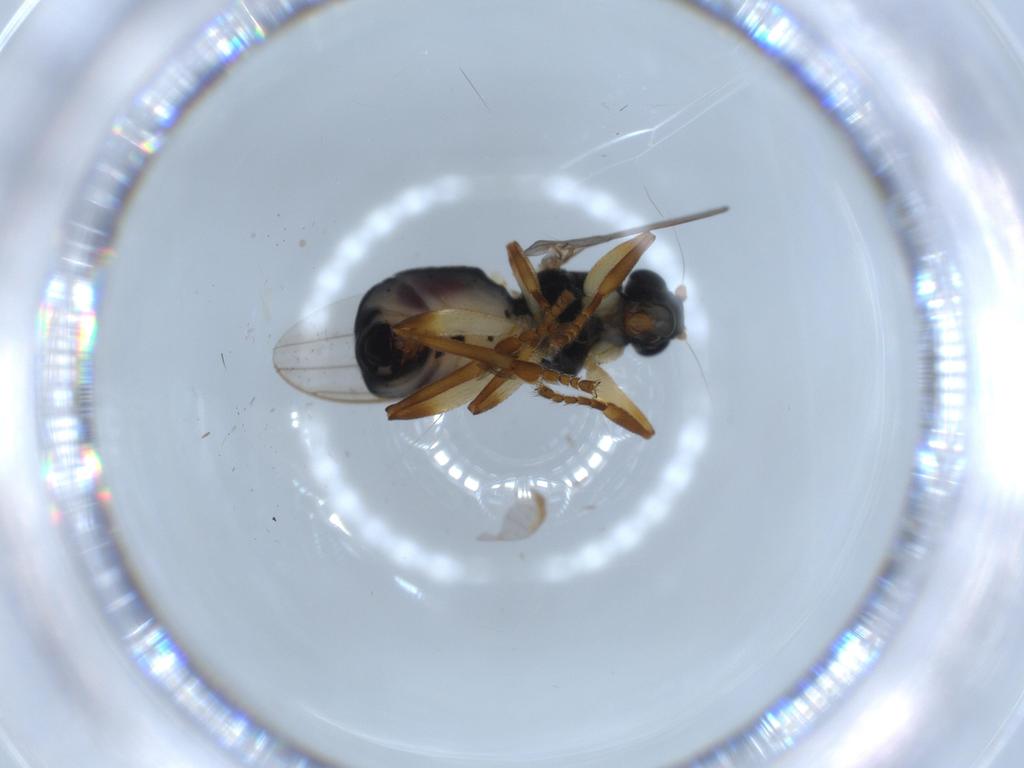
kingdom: Animalia
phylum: Arthropoda
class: Insecta
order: Diptera
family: Sphaeroceridae
